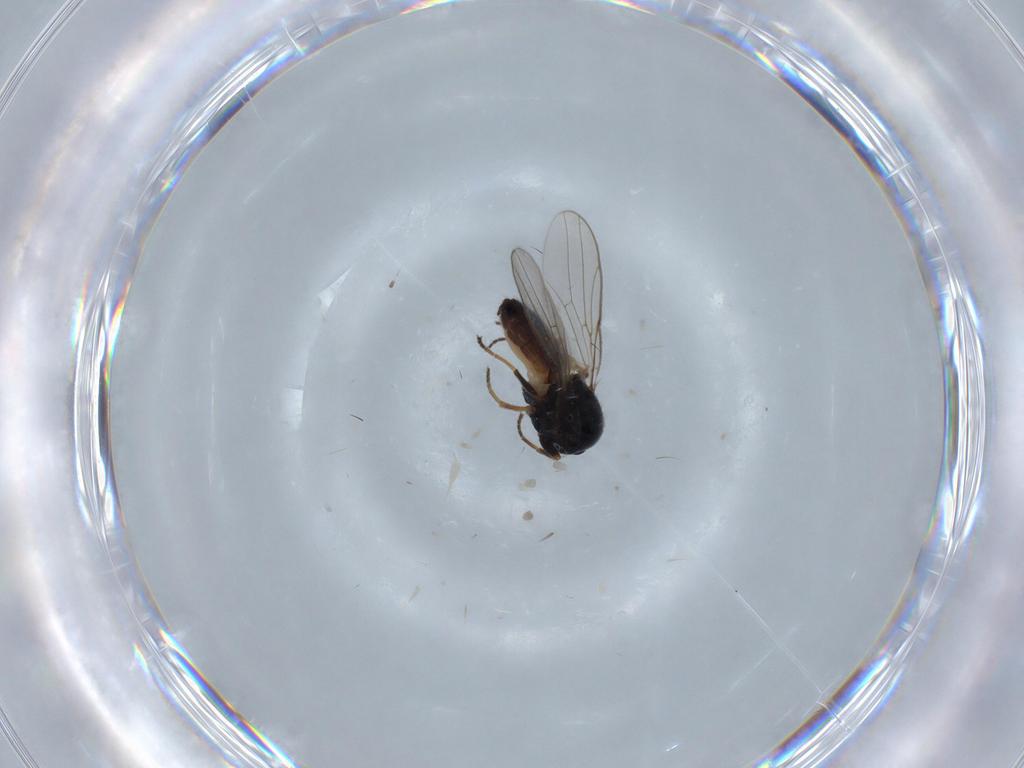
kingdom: Animalia
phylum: Arthropoda
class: Insecta
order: Diptera
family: Chloropidae
